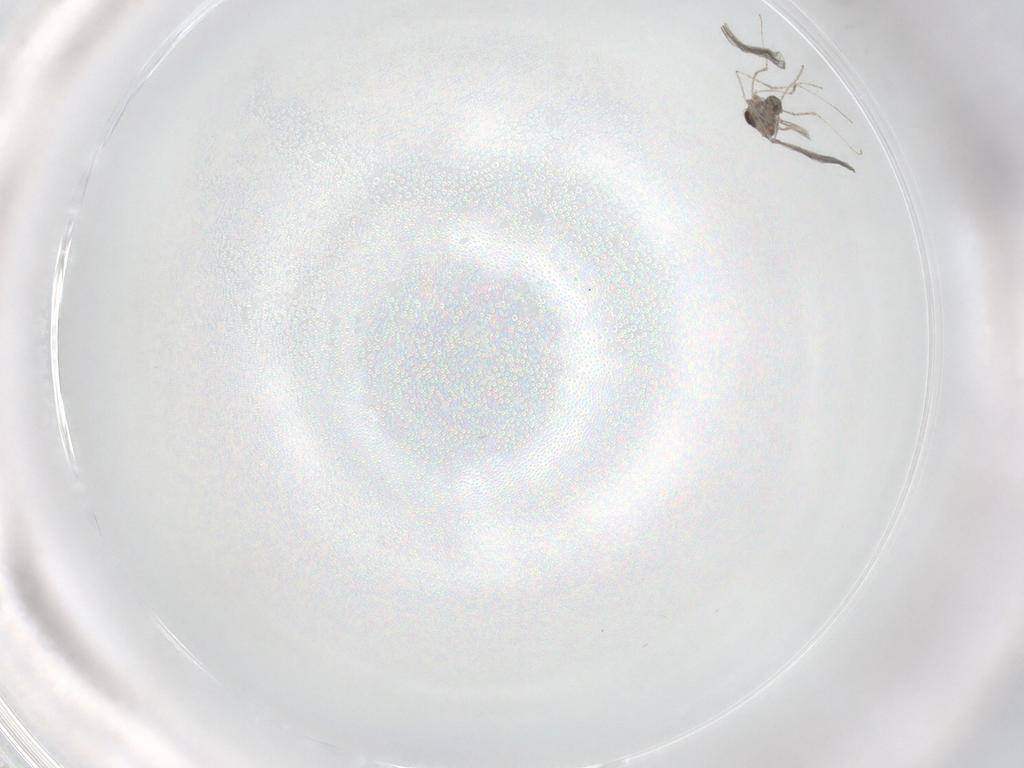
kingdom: Animalia
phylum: Arthropoda
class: Insecta
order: Diptera
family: Cecidomyiidae
